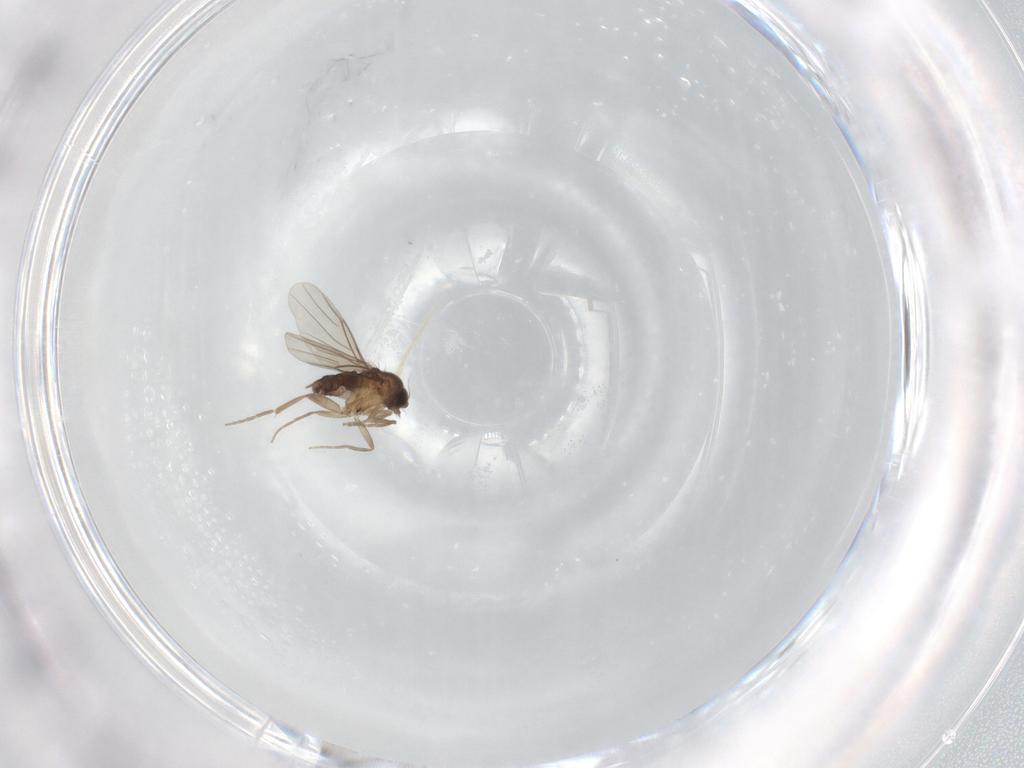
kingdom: Animalia
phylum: Arthropoda
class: Insecta
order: Diptera
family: Phoridae
